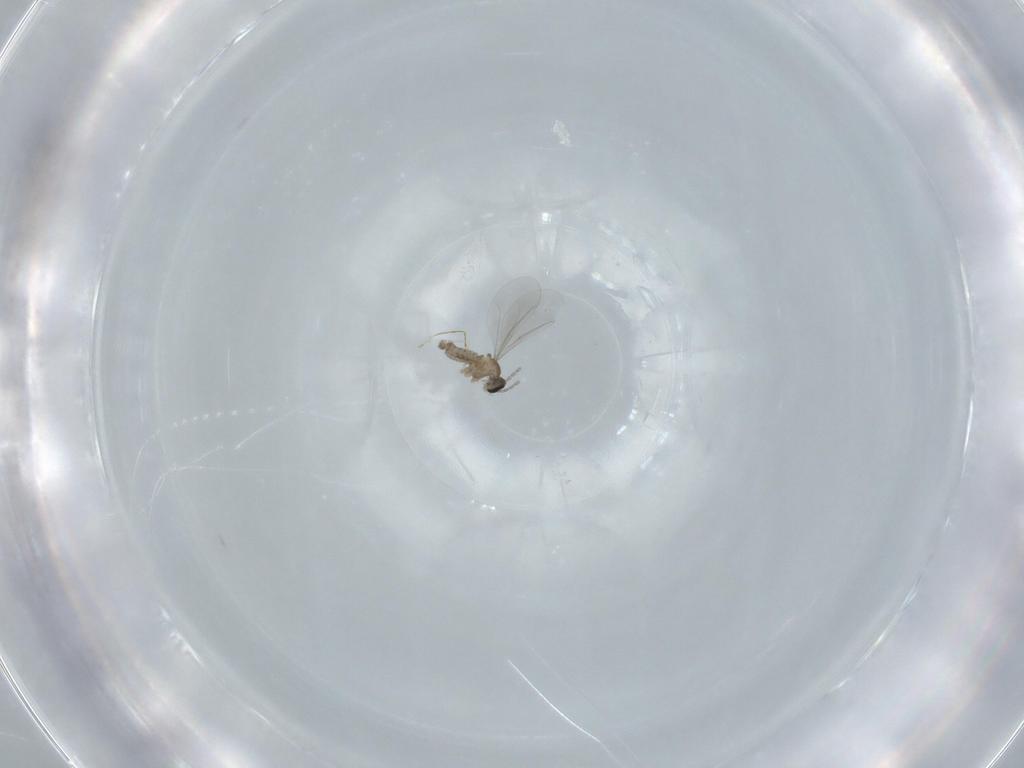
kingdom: Animalia
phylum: Arthropoda
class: Insecta
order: Diptera
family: Cecidomyiidae
